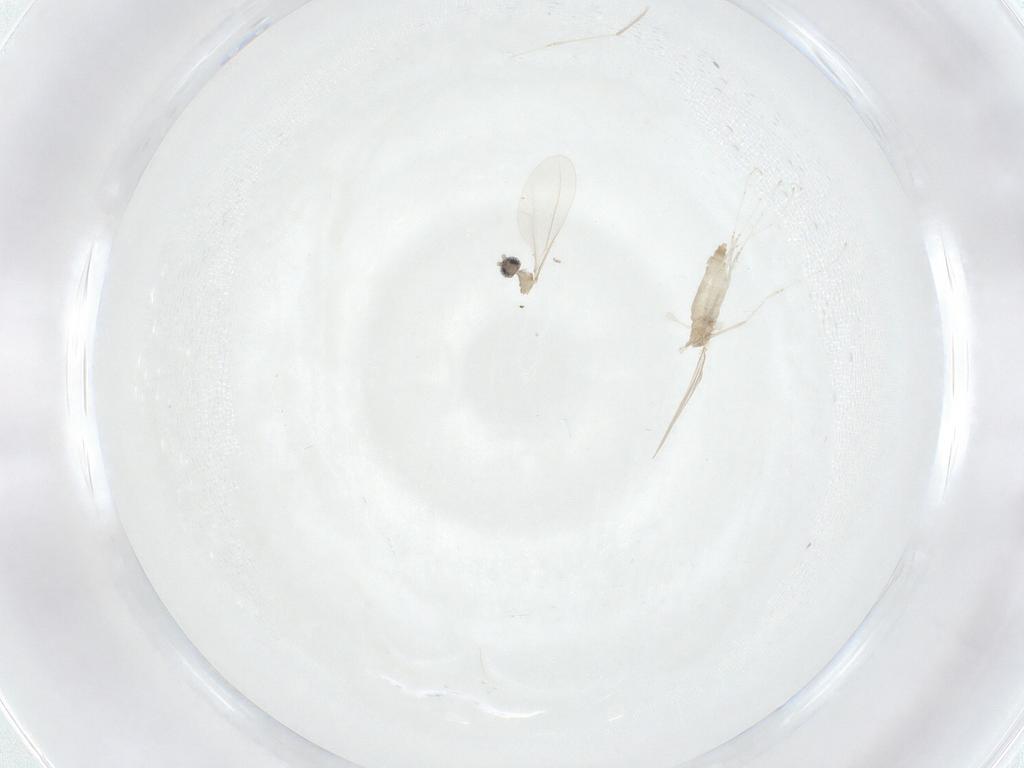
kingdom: Animalia
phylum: Arthropoda
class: Insecta
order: Diptera
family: Cecidomyiidae
